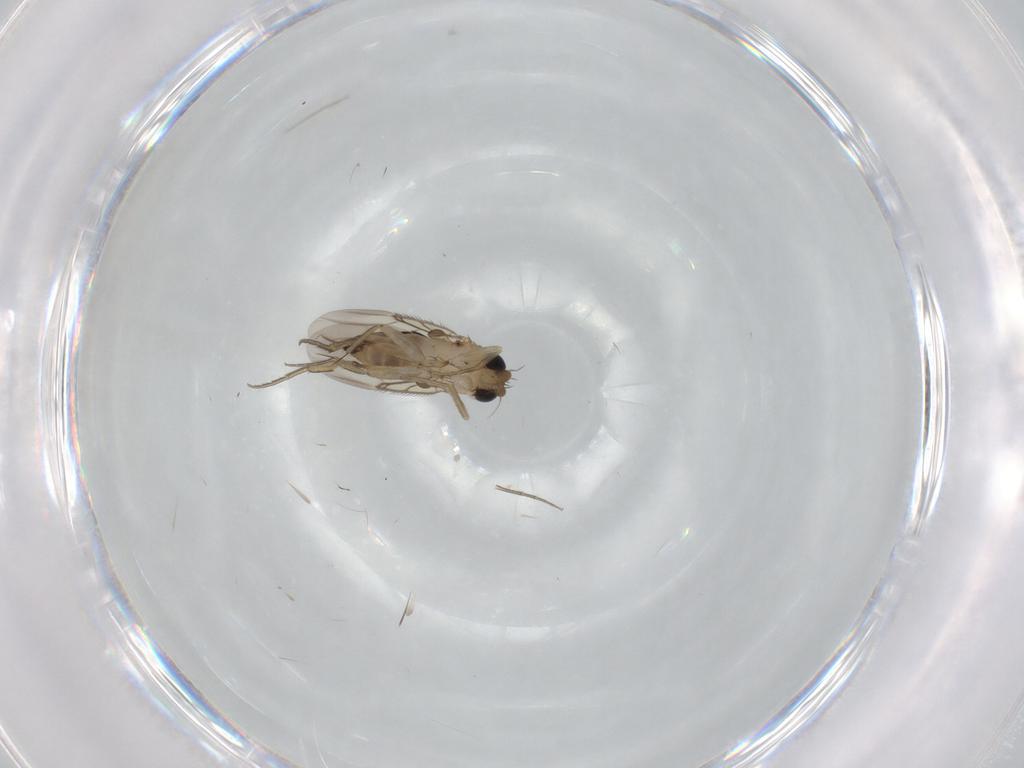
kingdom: Animalia
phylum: Arthropoda
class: Insecta
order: Diptera
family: Phoridae
